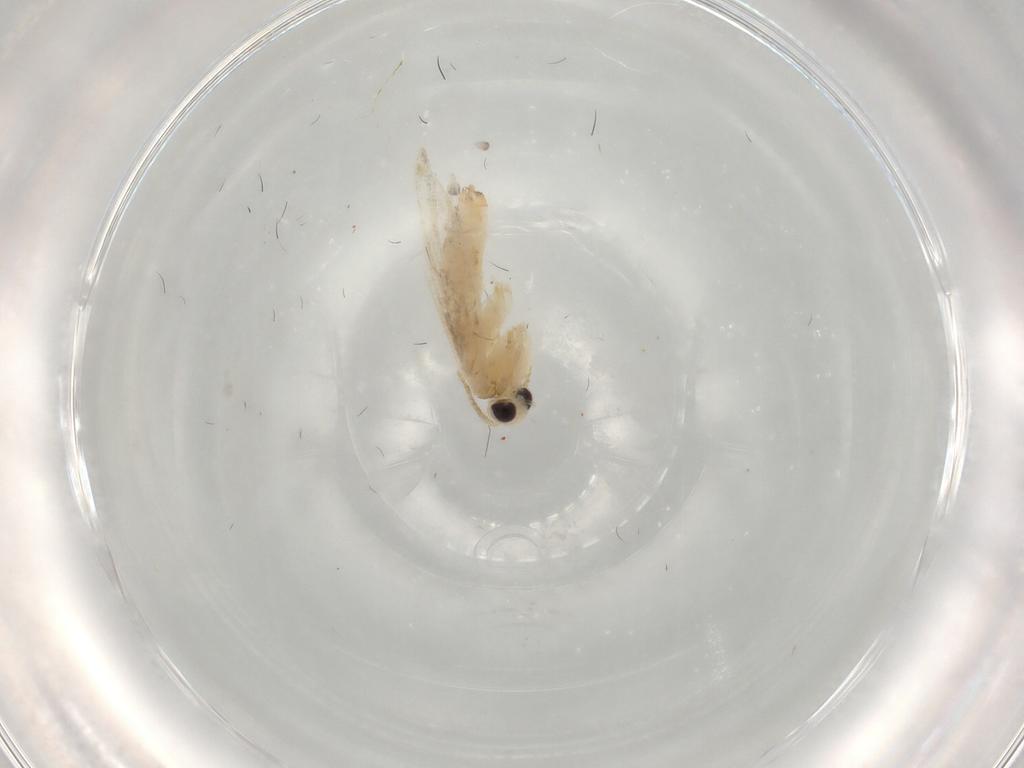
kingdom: Animalia
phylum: Arthropoda
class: Insecta
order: Lepidoptera
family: Psychidae
